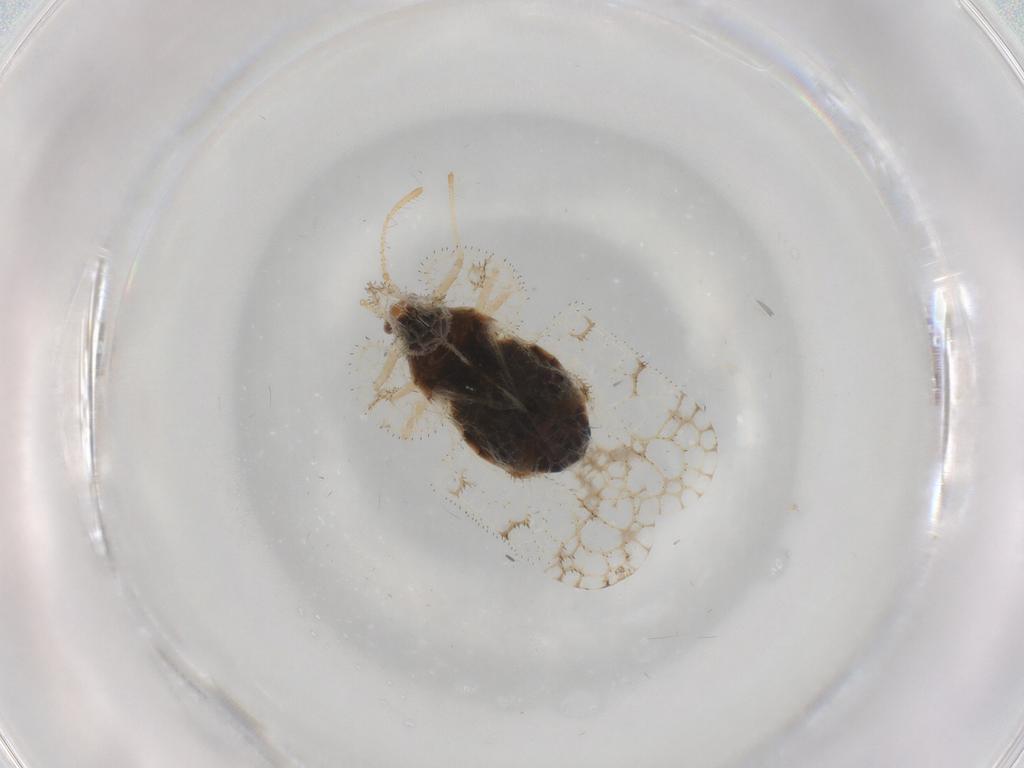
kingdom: Animalia
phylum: Arthropoda
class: Insecta
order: Hemiptera
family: Tingidae
